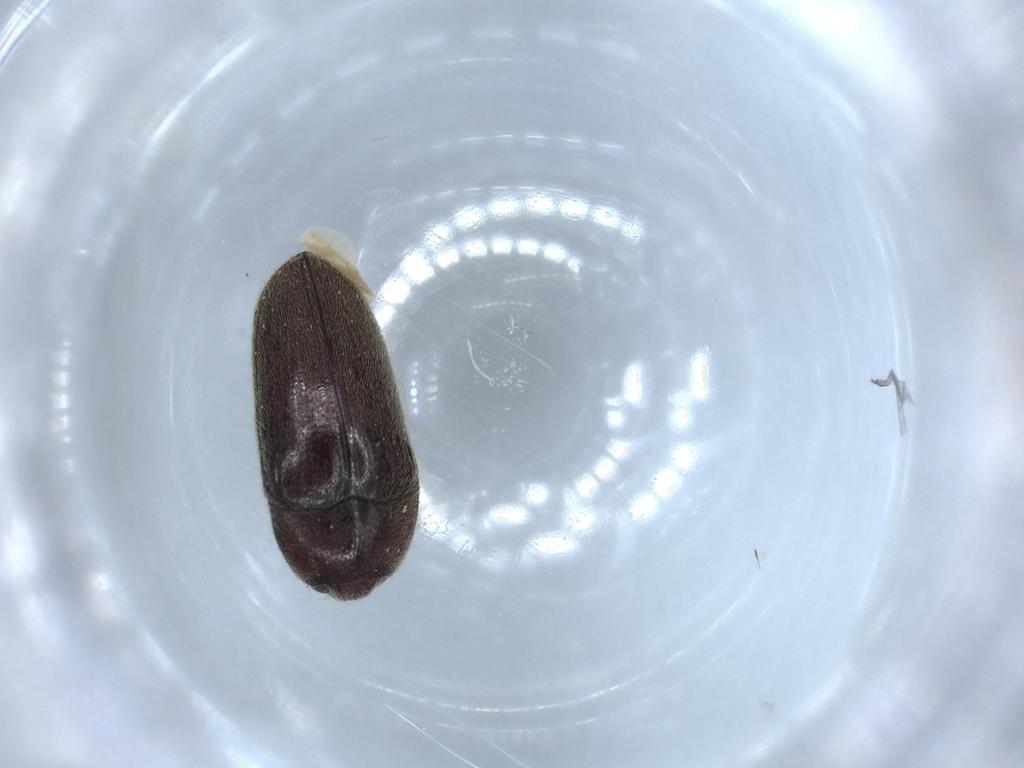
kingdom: Animalia
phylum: Arthropoda
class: Insecta
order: Coleoptera
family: Throscidae
